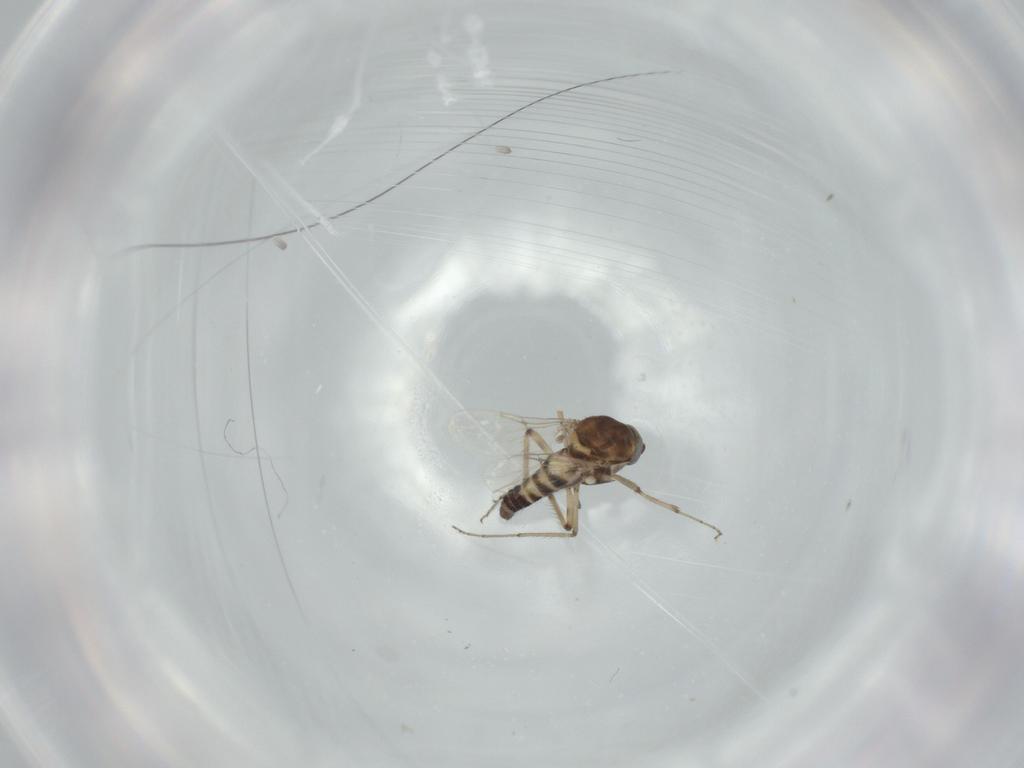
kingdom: Animalia
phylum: Arthropoda
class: Insecta
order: Diptera
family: Ceratopogonidae
